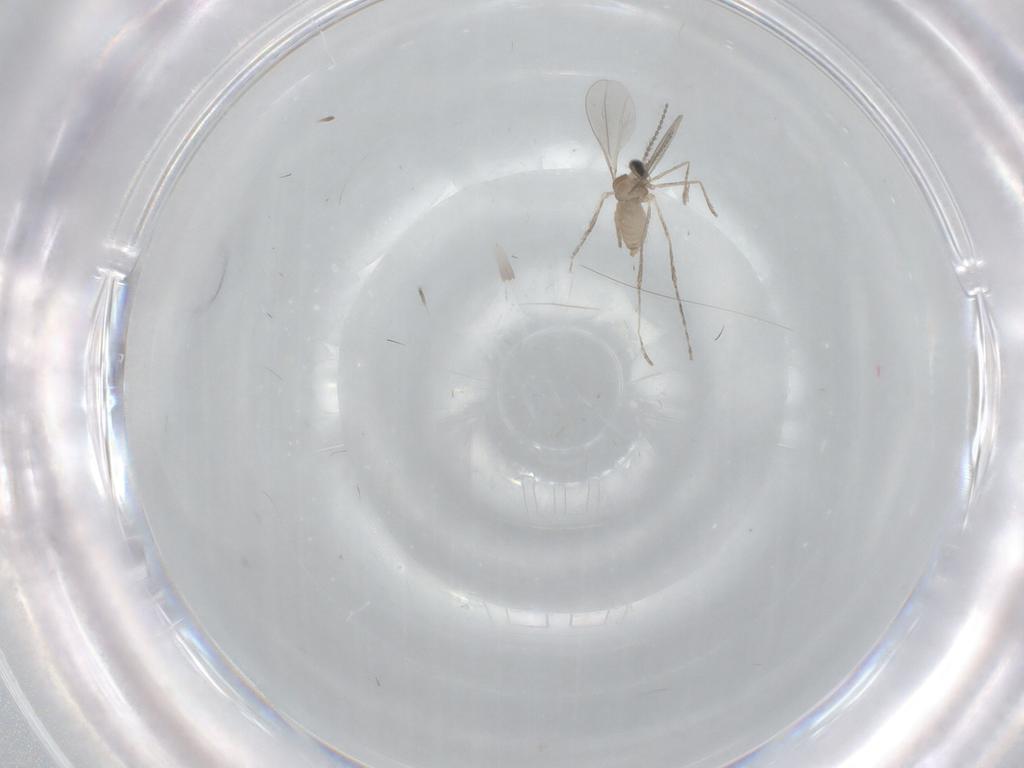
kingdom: Animalia
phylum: Arthropoda
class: Insecta
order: Diptera
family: Cecidomyiidae
